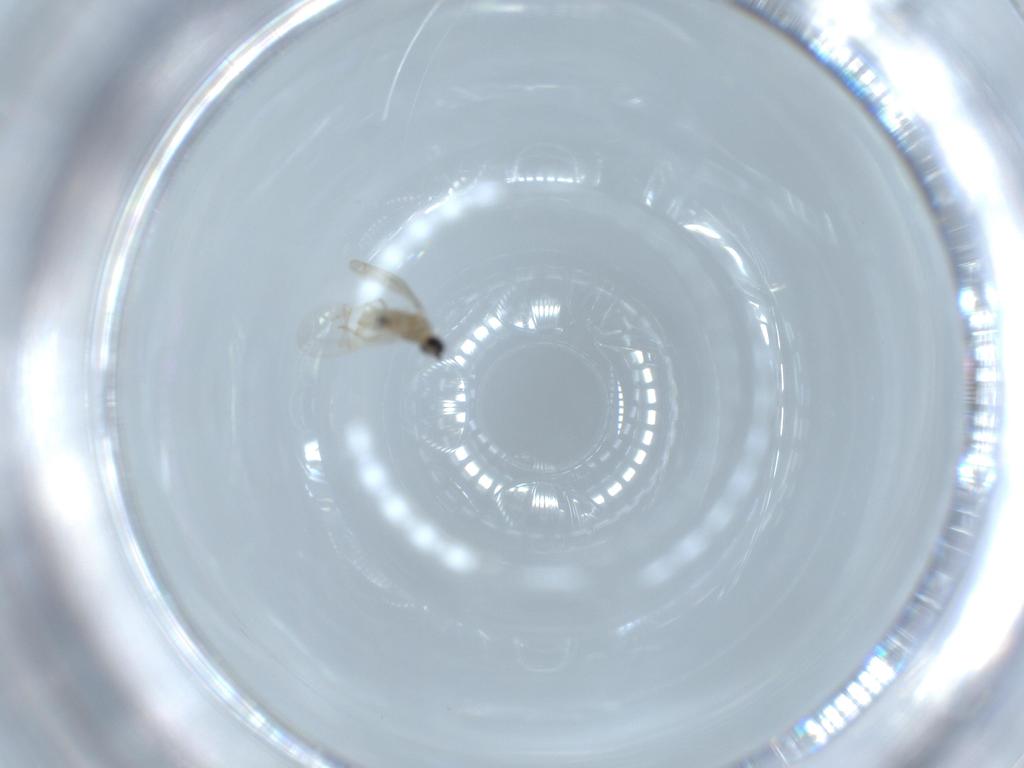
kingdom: Animalia
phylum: Arthropoda
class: Insecta
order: Diptera
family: Cecidomyiidae
